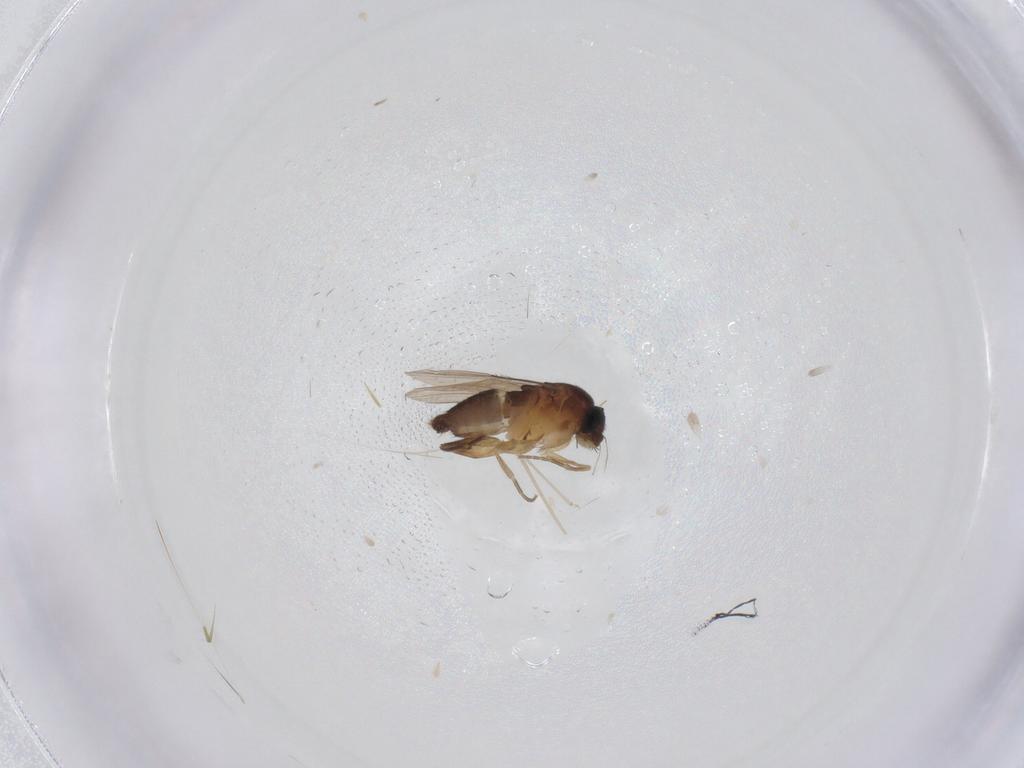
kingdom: Animalia
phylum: Arthropoda
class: Insecta
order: Diptera
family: Phoridae
